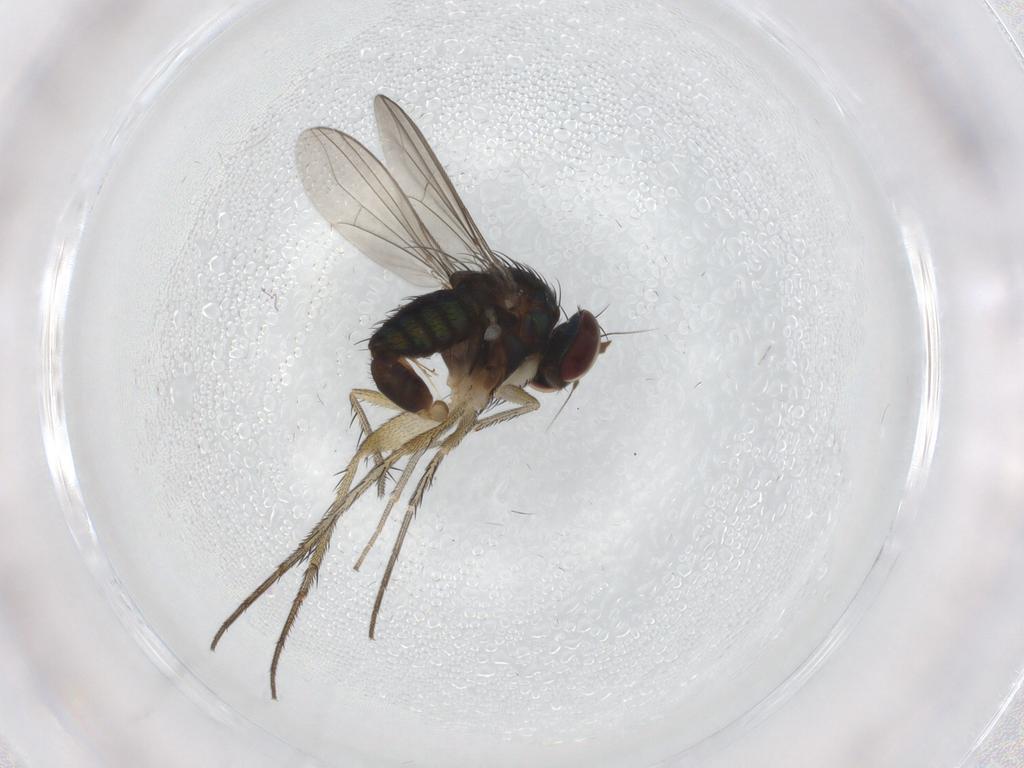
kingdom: Animalia
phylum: Arthropoda
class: Insecta
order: Diptera
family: Dolichopodidae
